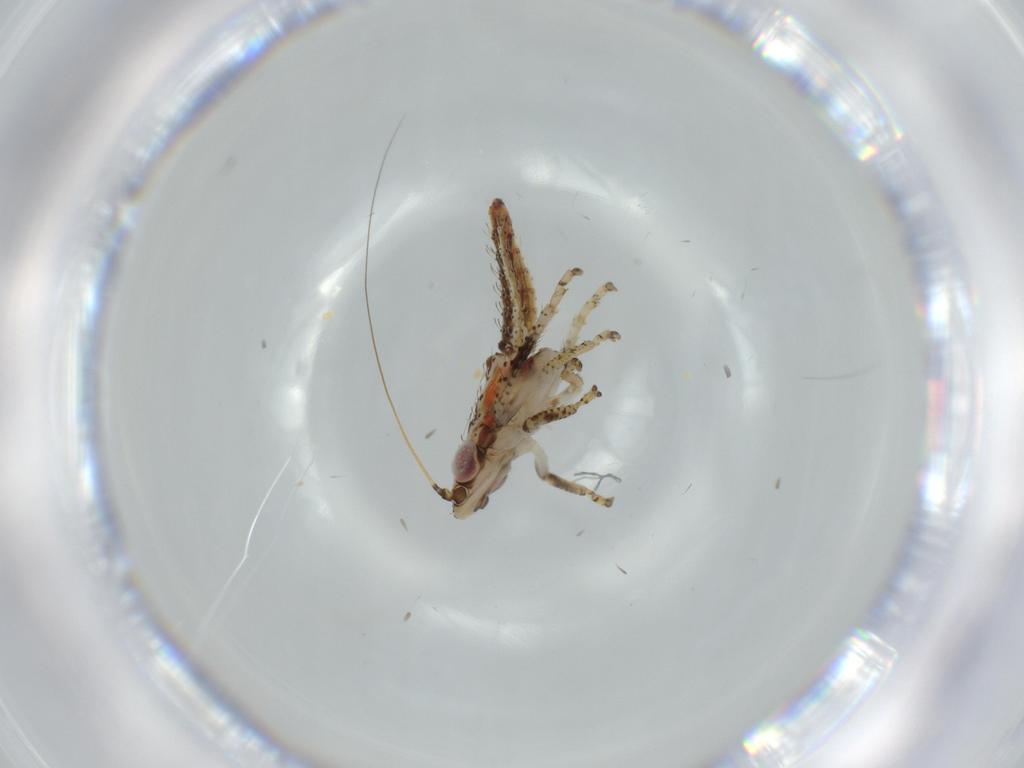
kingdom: Animalia
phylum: Arthropoda
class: Insecta
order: Hemiptera
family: Cicadellidae
